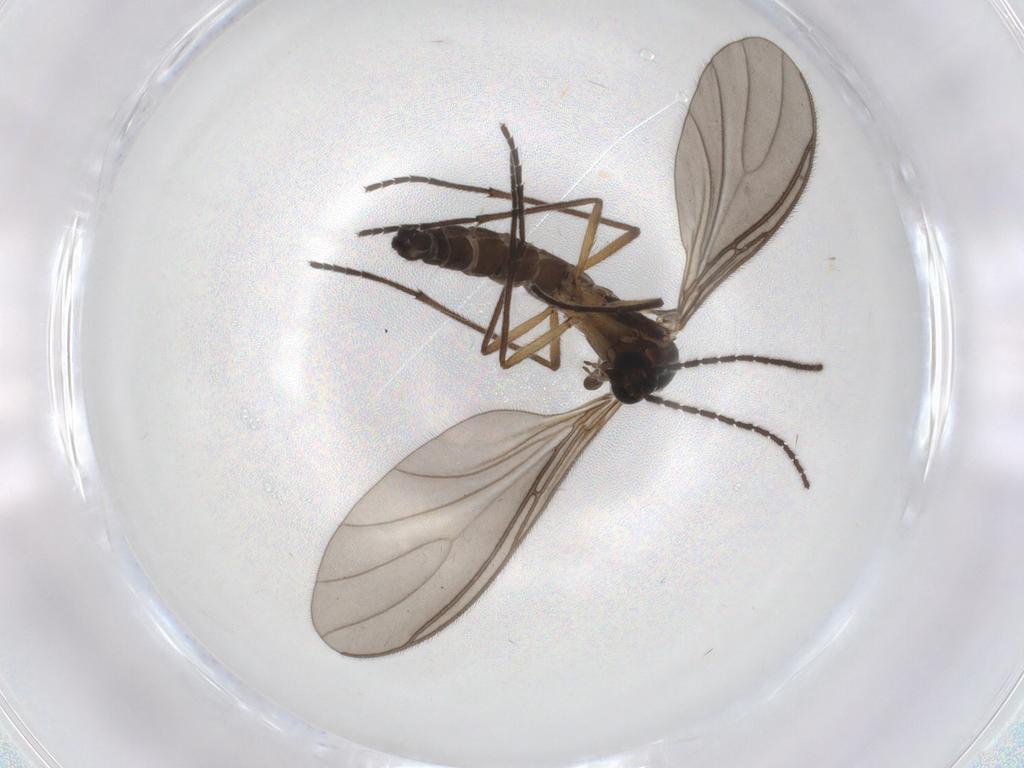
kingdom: Animalia
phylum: Arthropoda
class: Insecta
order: Diptera
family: Sciaridae
